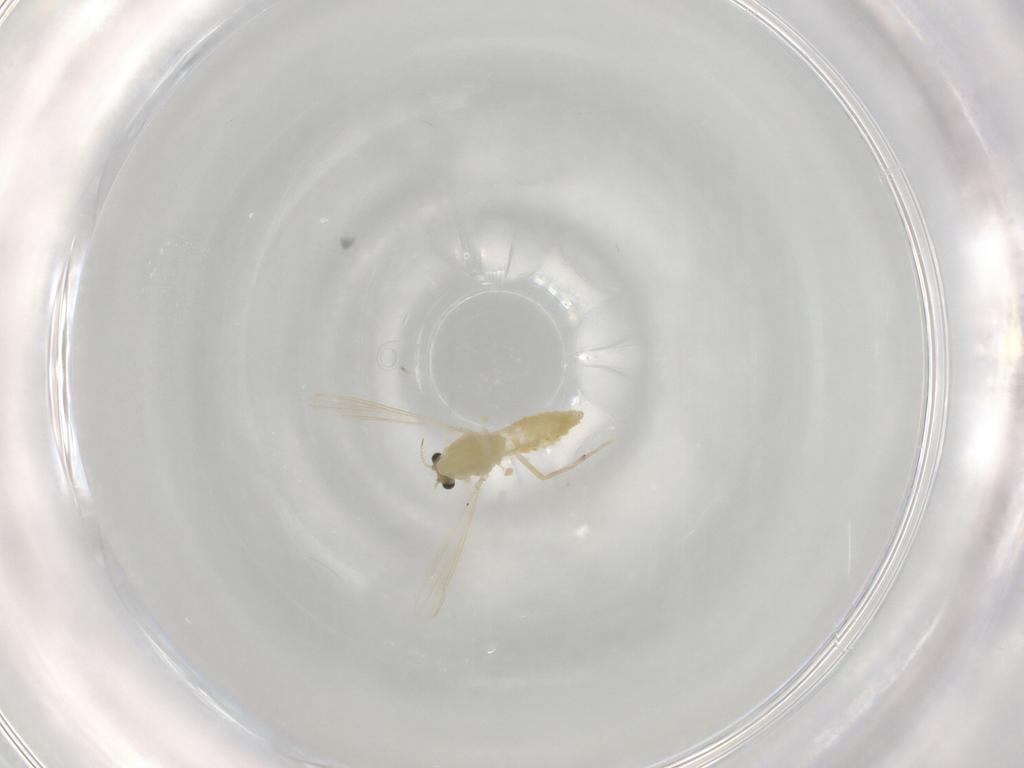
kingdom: Animalia
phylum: Arthropoda
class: Insecta
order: Diptera
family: Chironomidae
